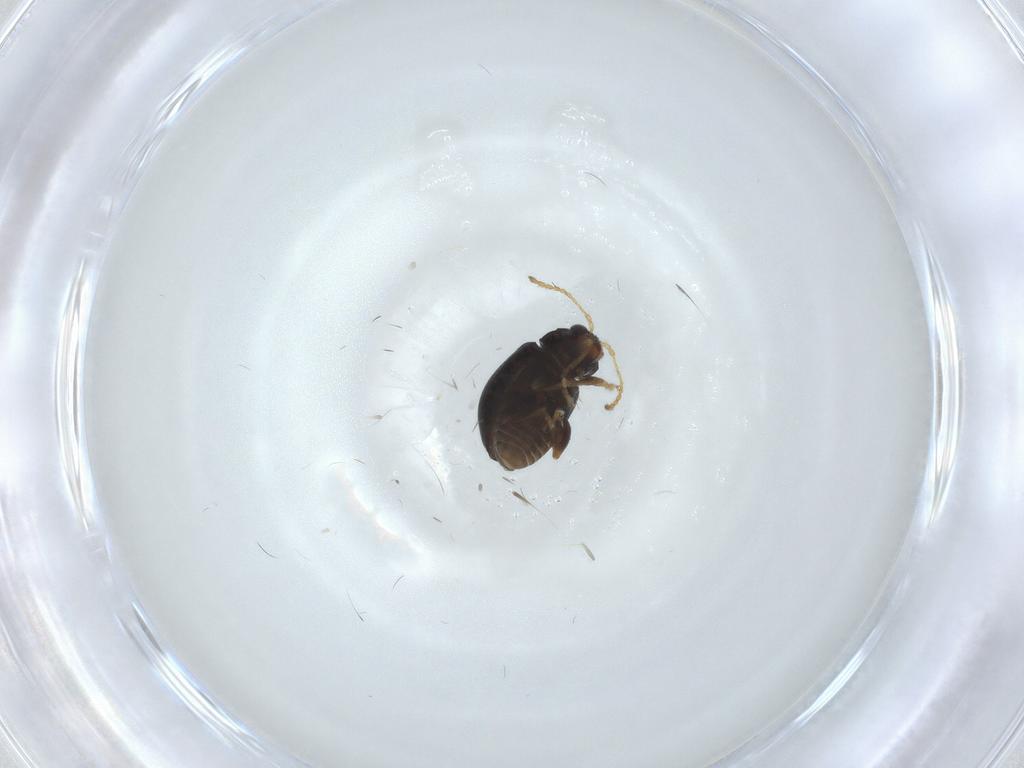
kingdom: Animalia
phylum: Arthropoda
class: Insecta
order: Coleoptera
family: Chrysomelidae
